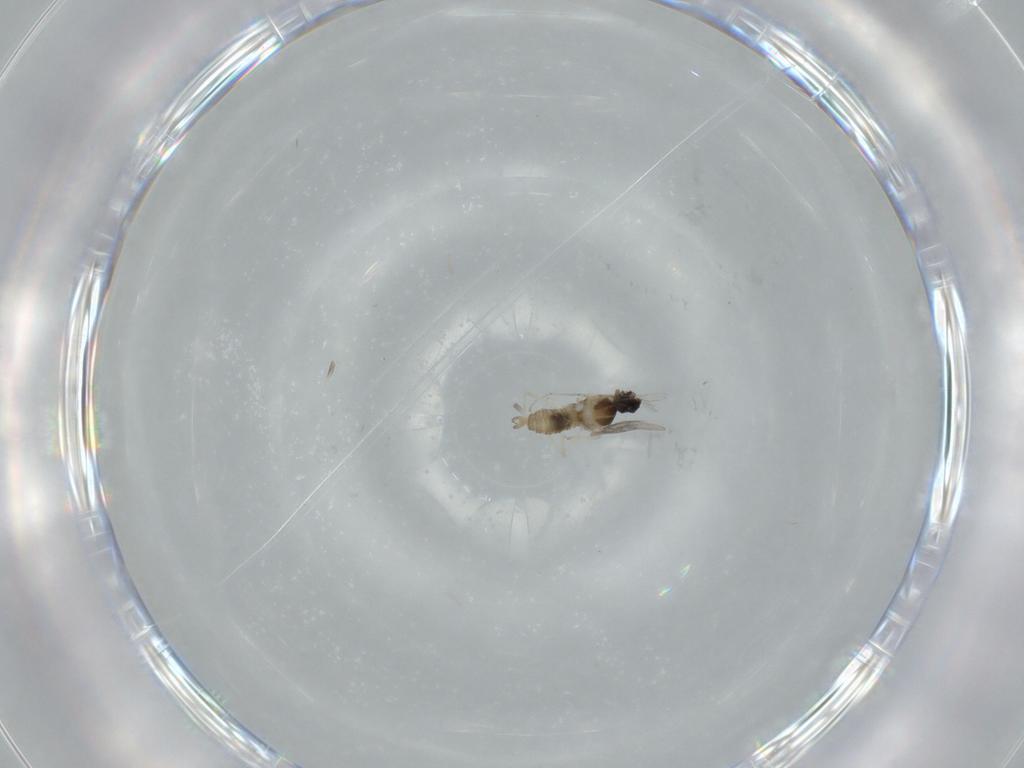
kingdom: Animalia
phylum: Arthropoda
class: Insecta
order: Diptera
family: Cecidomyiidae
